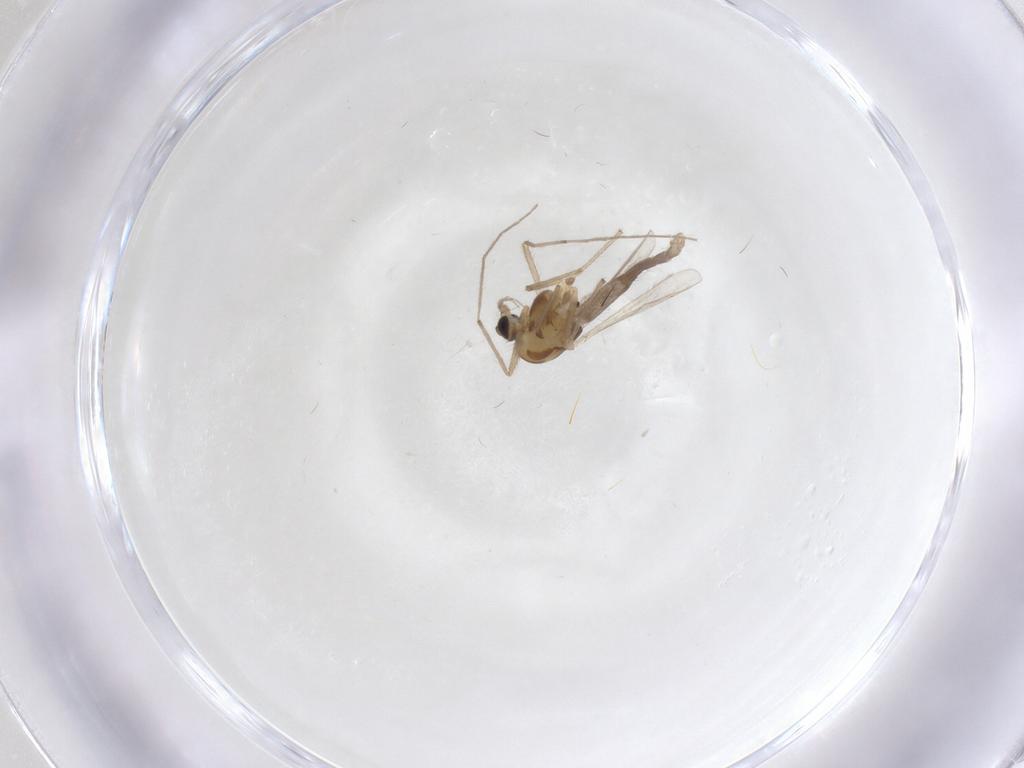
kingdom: Animalia
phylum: Arthropoda
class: Insecta
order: Diptera
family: Chironomidae
